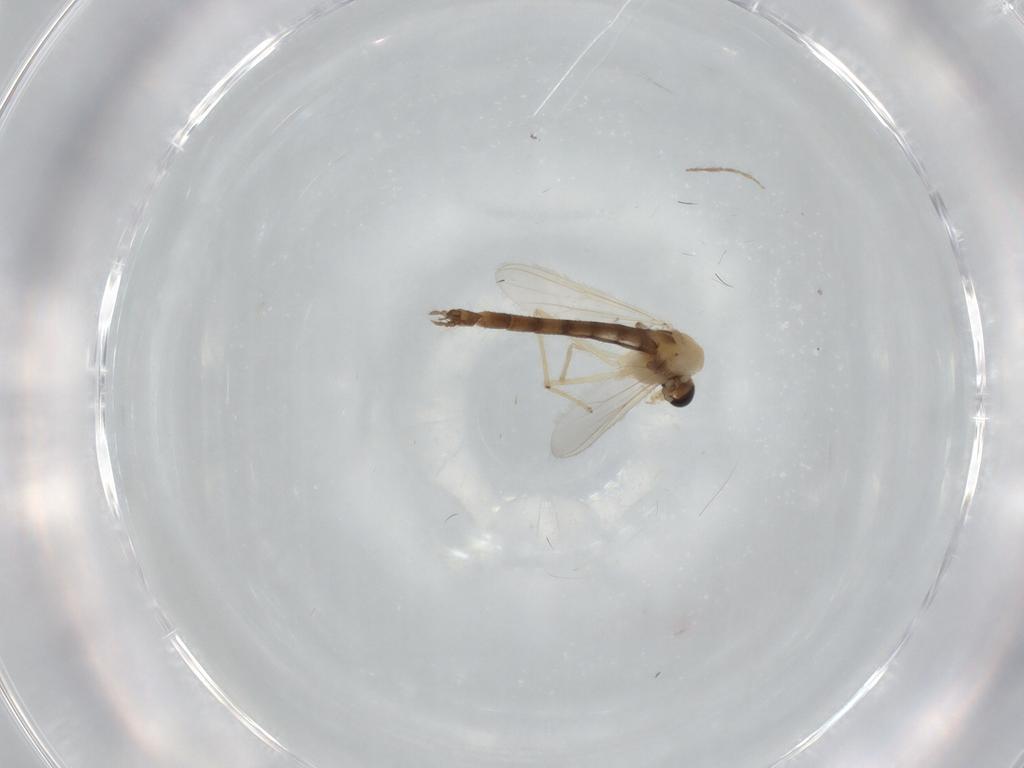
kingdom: Animalia
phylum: Arthropoda
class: Insecta
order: Diptera
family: Chironomidae
